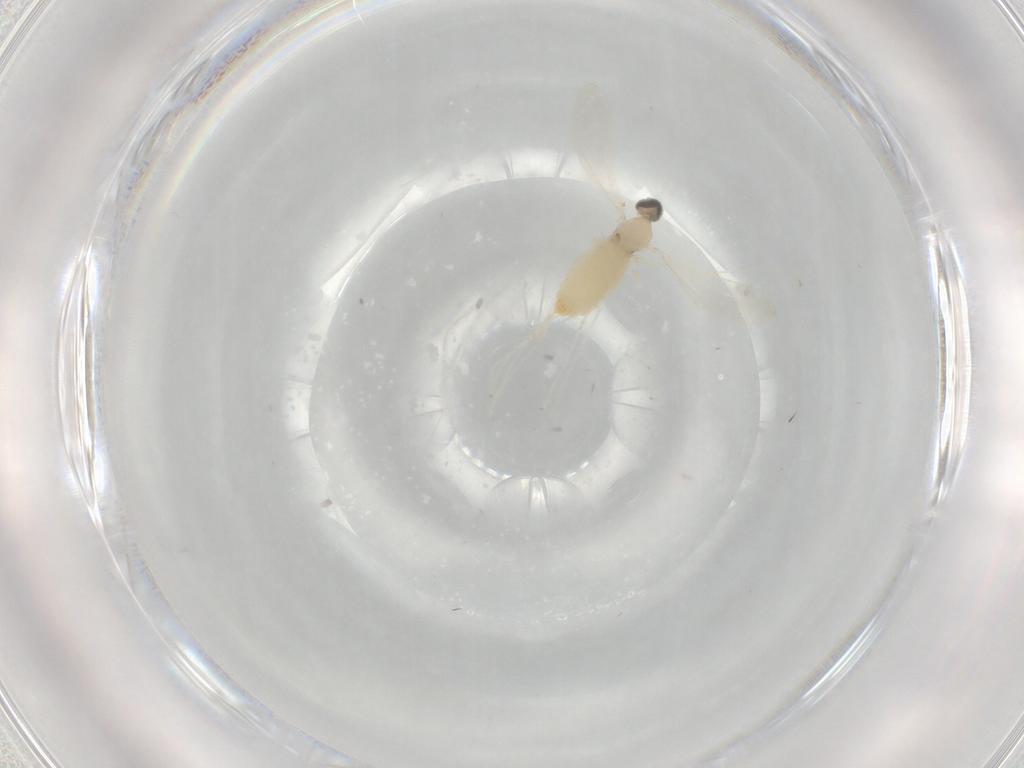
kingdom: Animalia
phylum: Arthropoda
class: Insecta
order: Diptera
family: Cecidomyiidae
